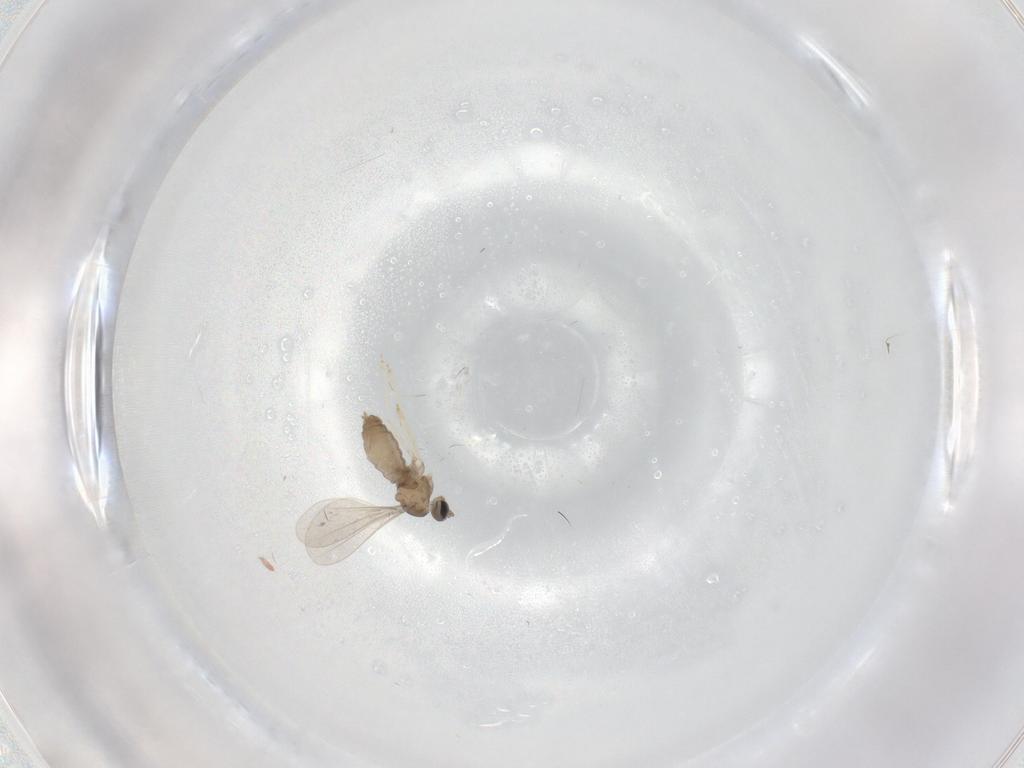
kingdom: Animalia
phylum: Arthropoda
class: Insecta
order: Diptera
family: Cecidomyiidae
